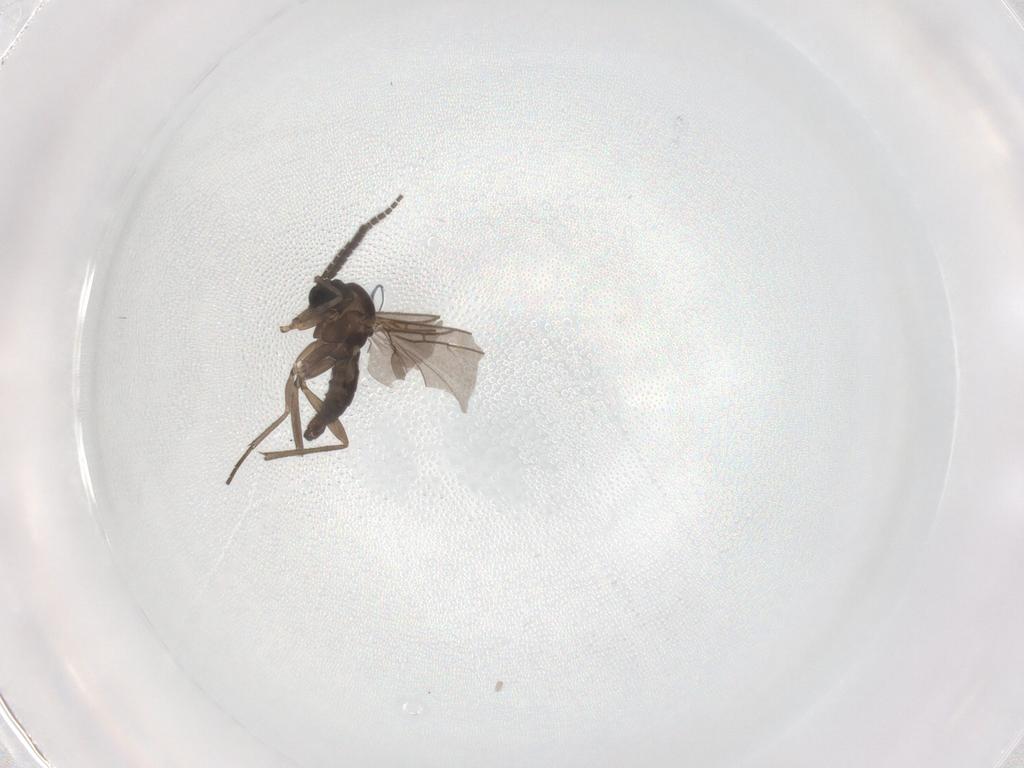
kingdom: Animalia
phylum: Arthropoda
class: Insecta
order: Diptera
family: Sciaridae
